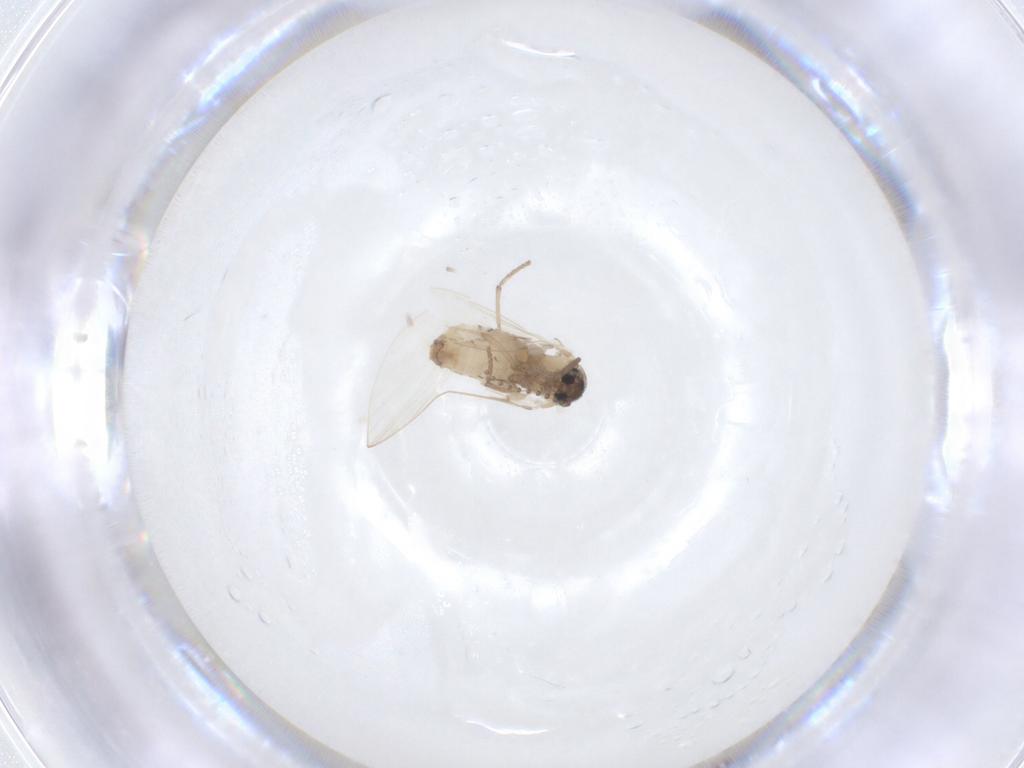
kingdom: Animalia
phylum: Arthropoda
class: Insecta
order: Diptera
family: Psychodidae
